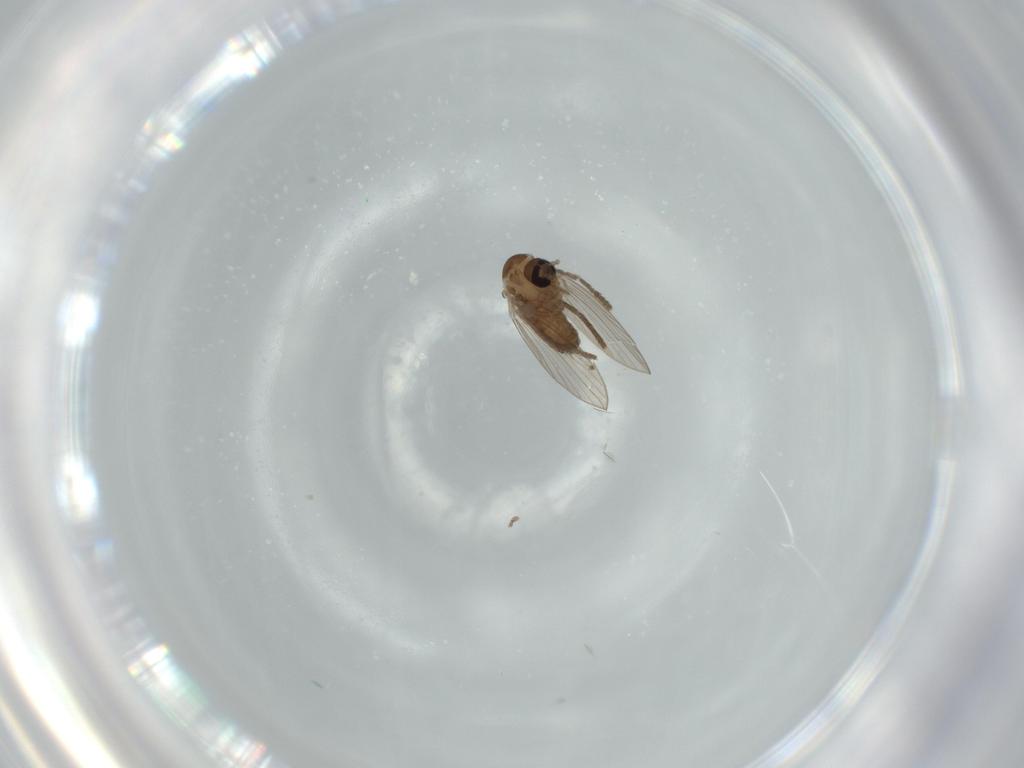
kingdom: Animalia
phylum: Arthropoda
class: Insecta
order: Diptera
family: Psychodidae
